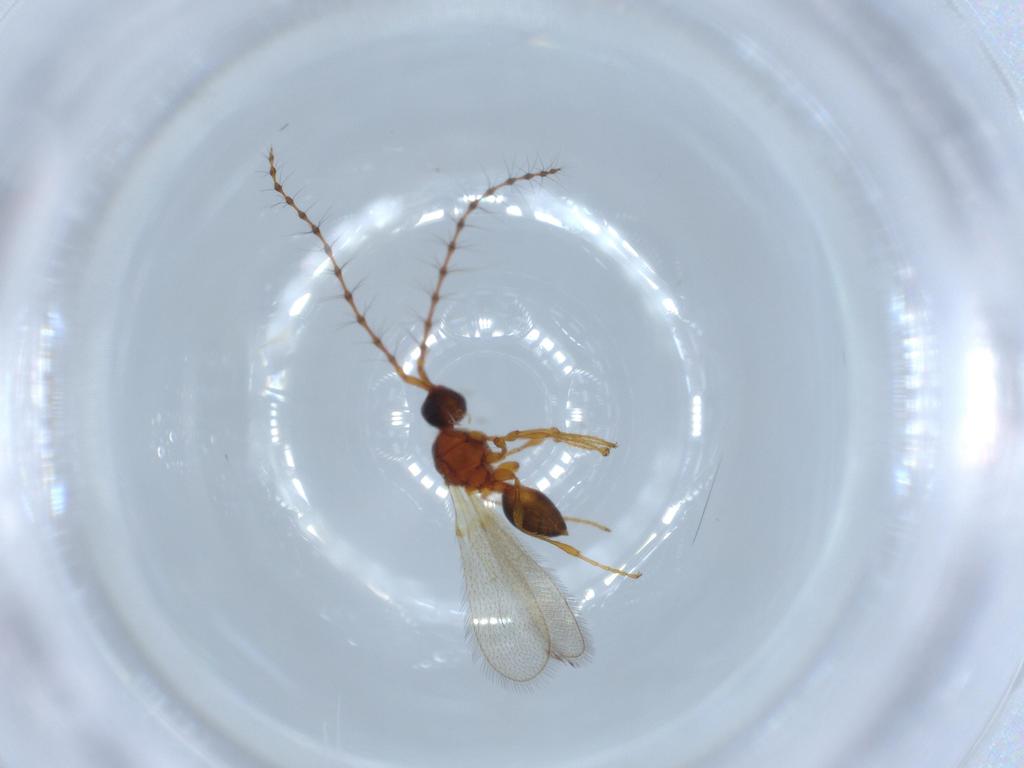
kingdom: Animalia
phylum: Arthropoda
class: Insecta
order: Hymenoptera
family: Diapriidae
